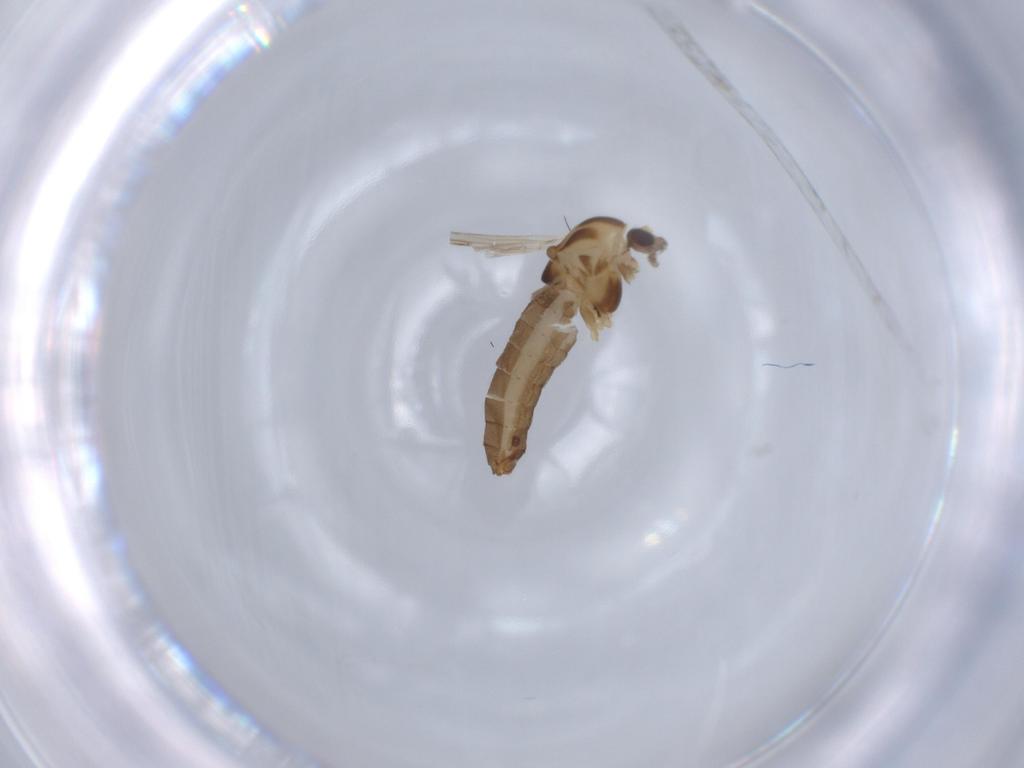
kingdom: Animalia
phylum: Arthropoda
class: Insecta
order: Diptera
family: Chironomidae
